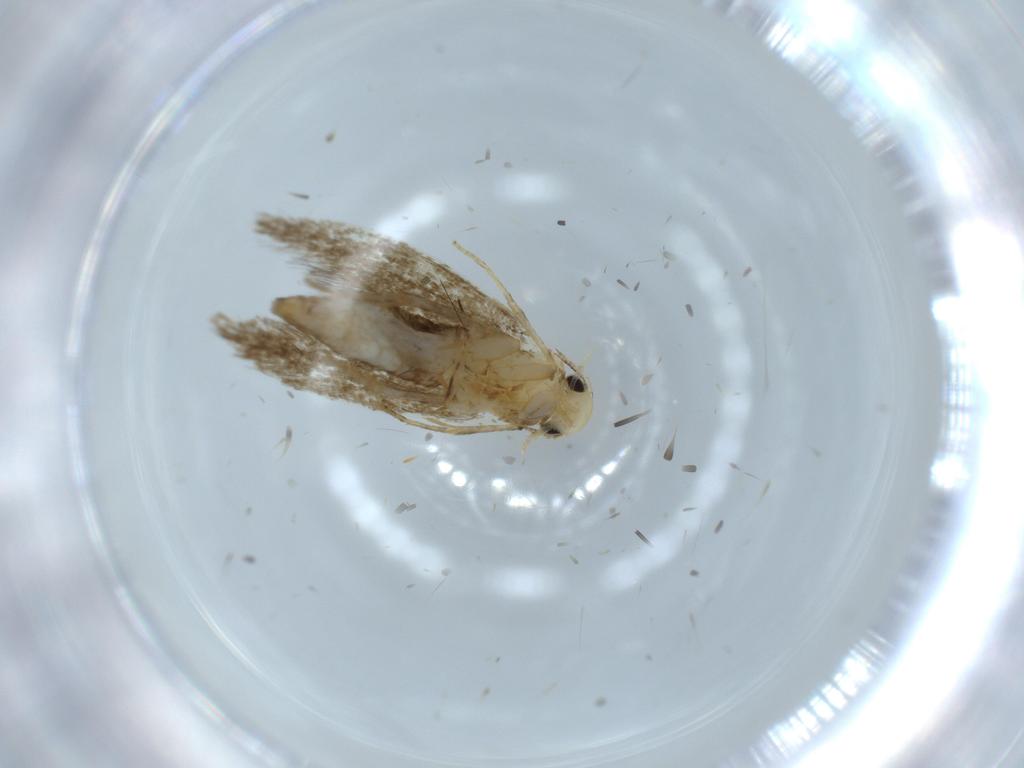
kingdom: Animalia
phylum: Arthropoda
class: Insecta
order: Lepidoptera
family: Tineidae
